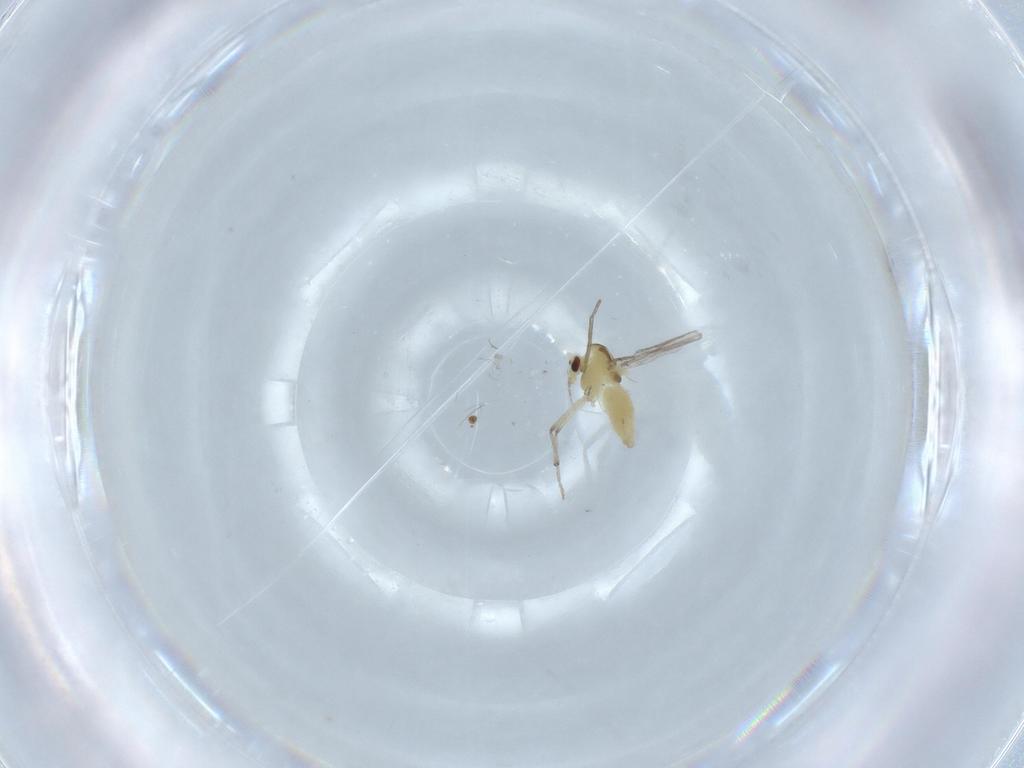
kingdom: Animalia
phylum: Arthropoda
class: Insecta
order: Diptera
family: Chironomidae
